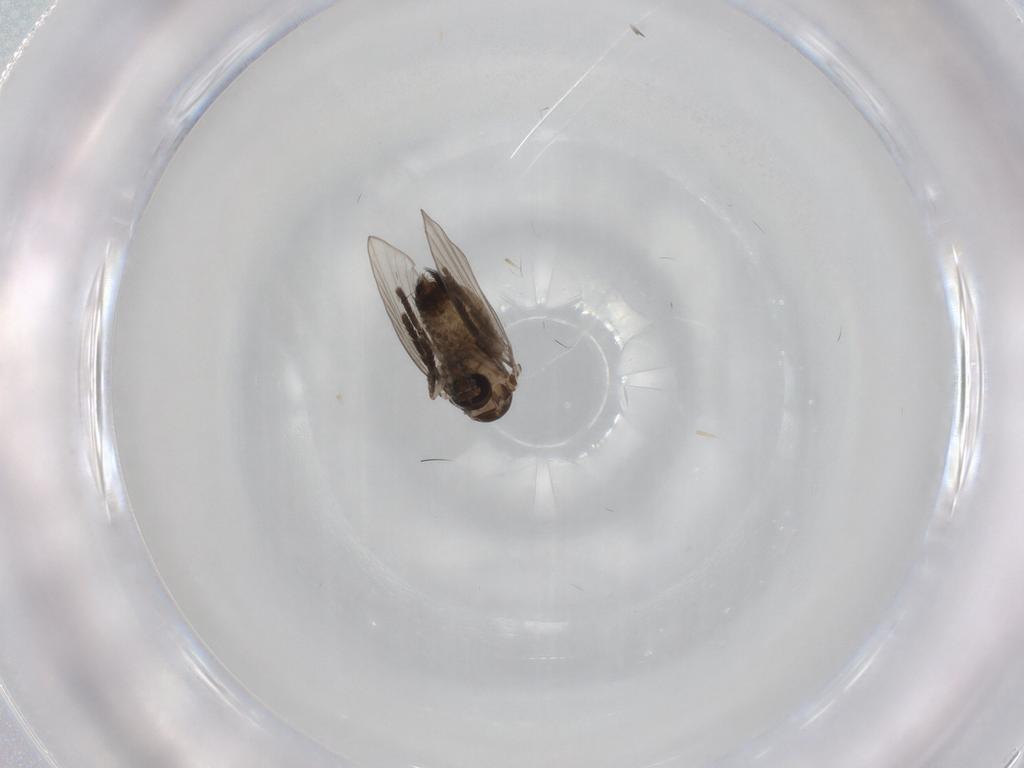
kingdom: Animalia
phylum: Arthropoda
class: Insecta
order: Diptera
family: Psychodidae
